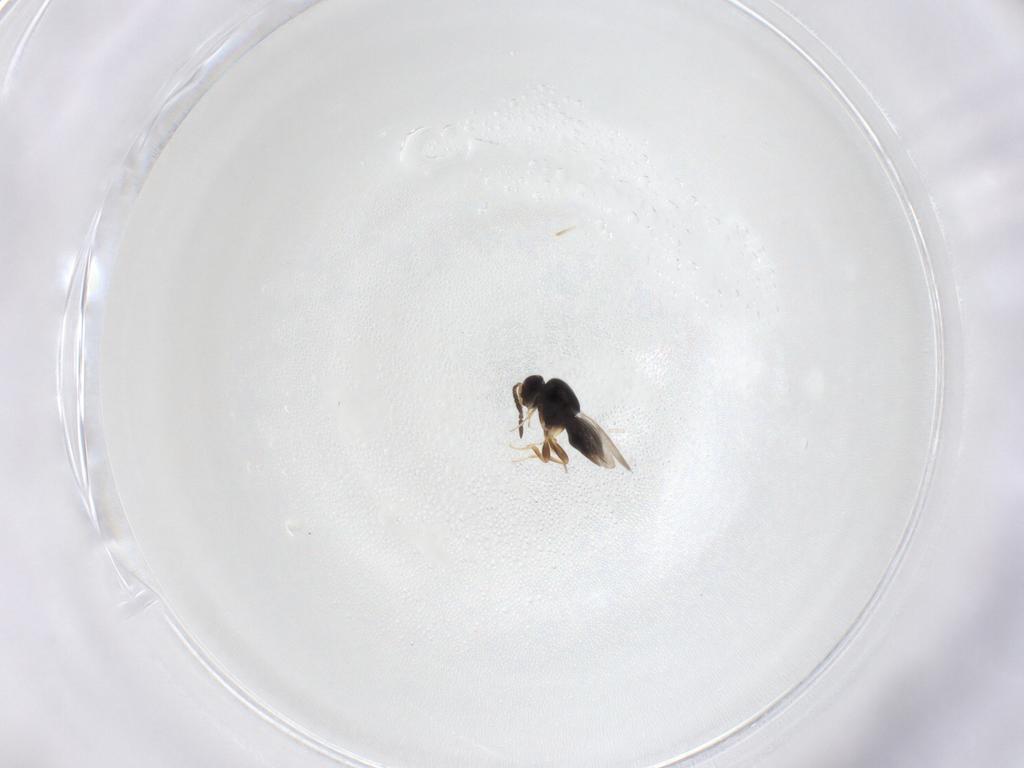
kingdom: Animalia
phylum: Arthropoda
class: Insecta
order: Hymenoptera
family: Ceraphronidae
